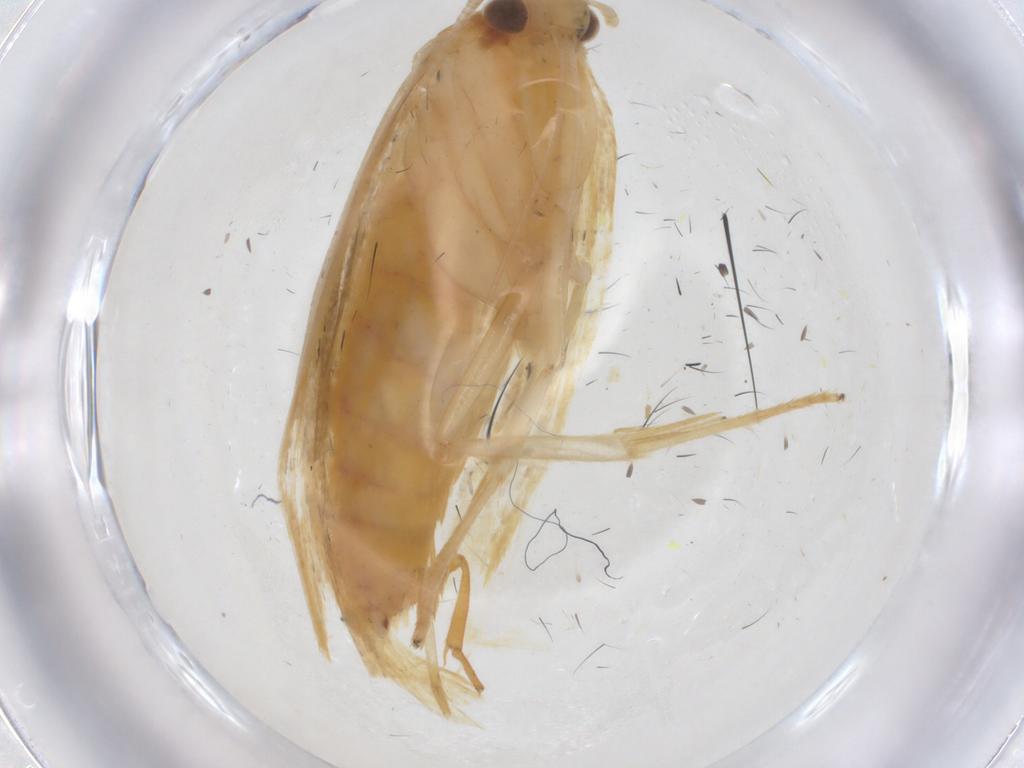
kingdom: Animalia
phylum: Arthropoda
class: Insecta
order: Lepidoptera
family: Lecithoceridae
